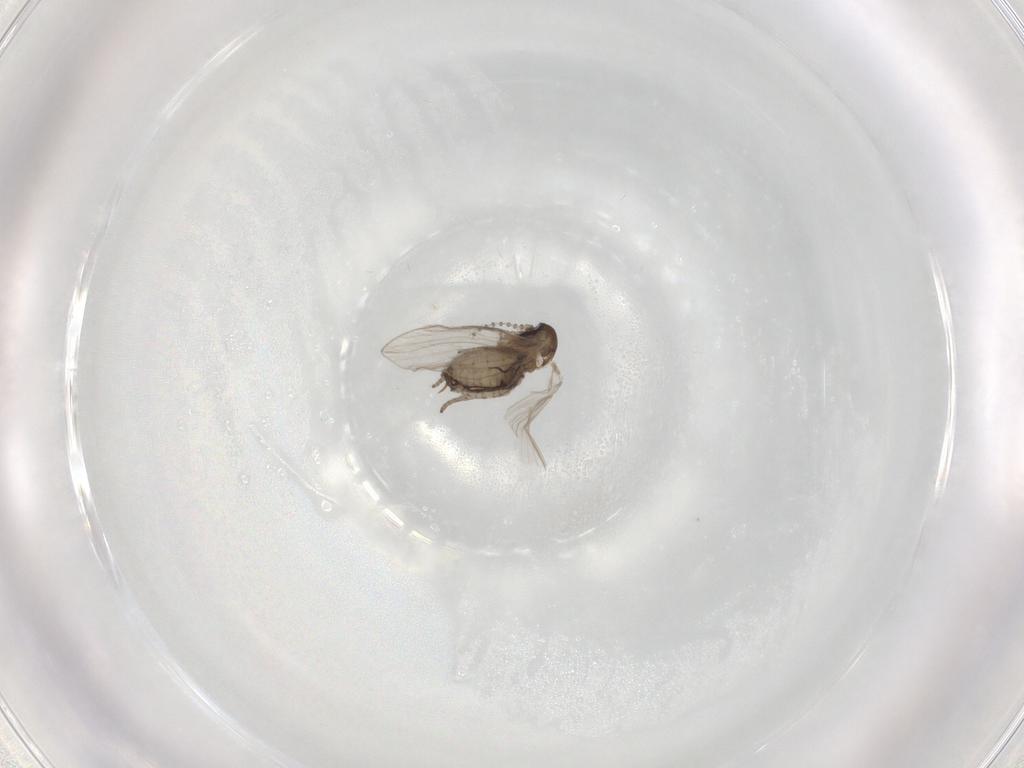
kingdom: Animalia
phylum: Arthropoda
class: Insecta
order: Diptera
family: Psychodidae
